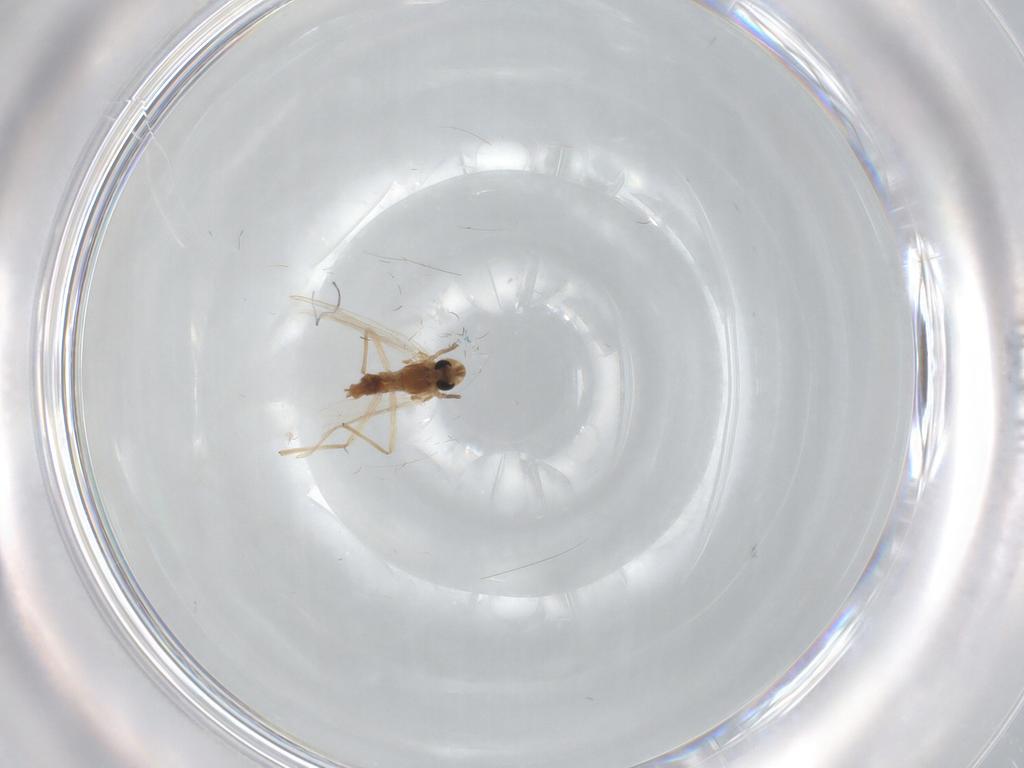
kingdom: Animalia
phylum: Arthropoda
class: Insecta
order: Diptera
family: Chironomidae
